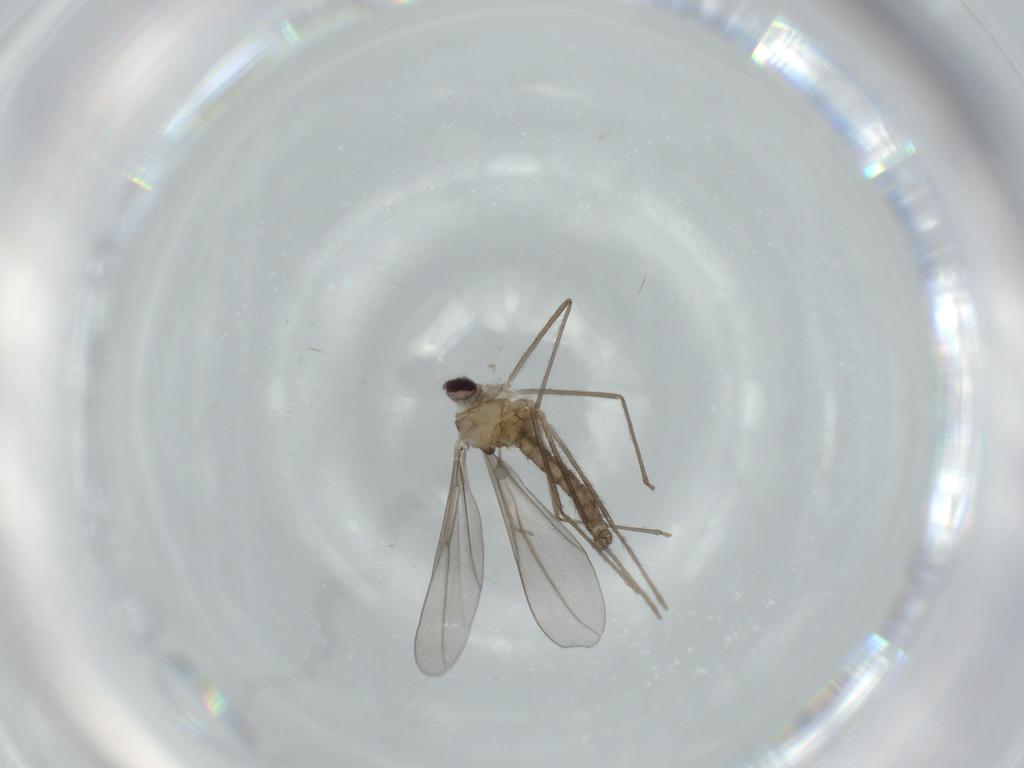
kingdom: Animalia
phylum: Arthropoda
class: Insecta
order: Diptera
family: Cecidomyiidae
